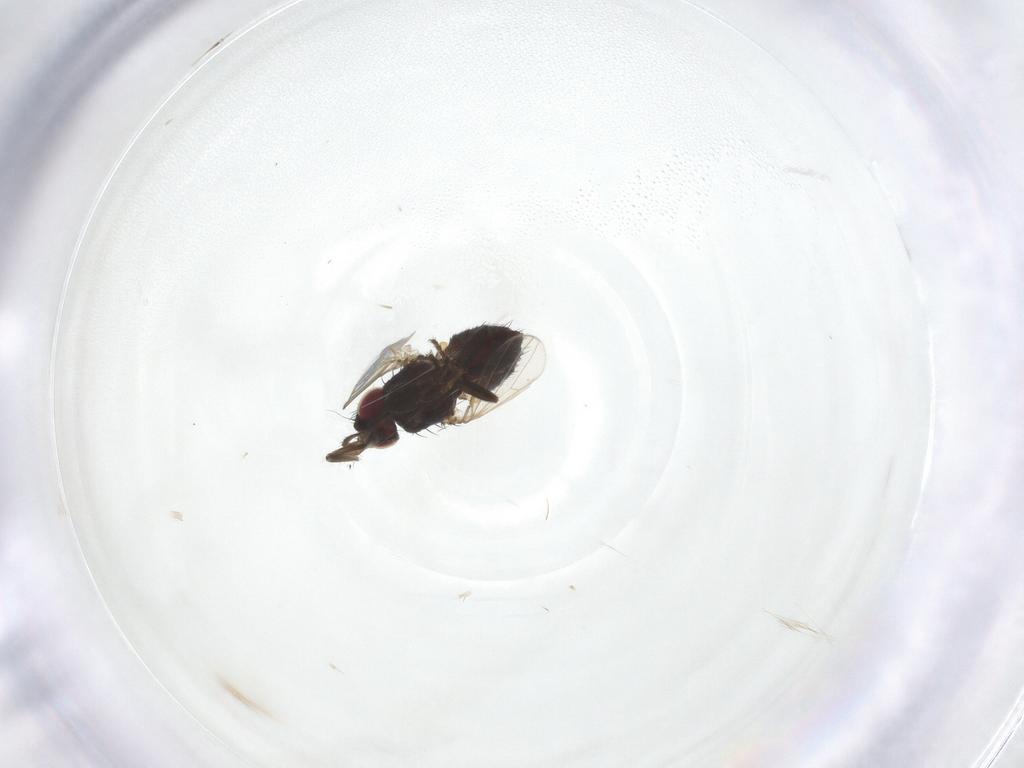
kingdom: Animalia
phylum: Arthropoda
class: Insecta
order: Diptera
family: Milichiidae
